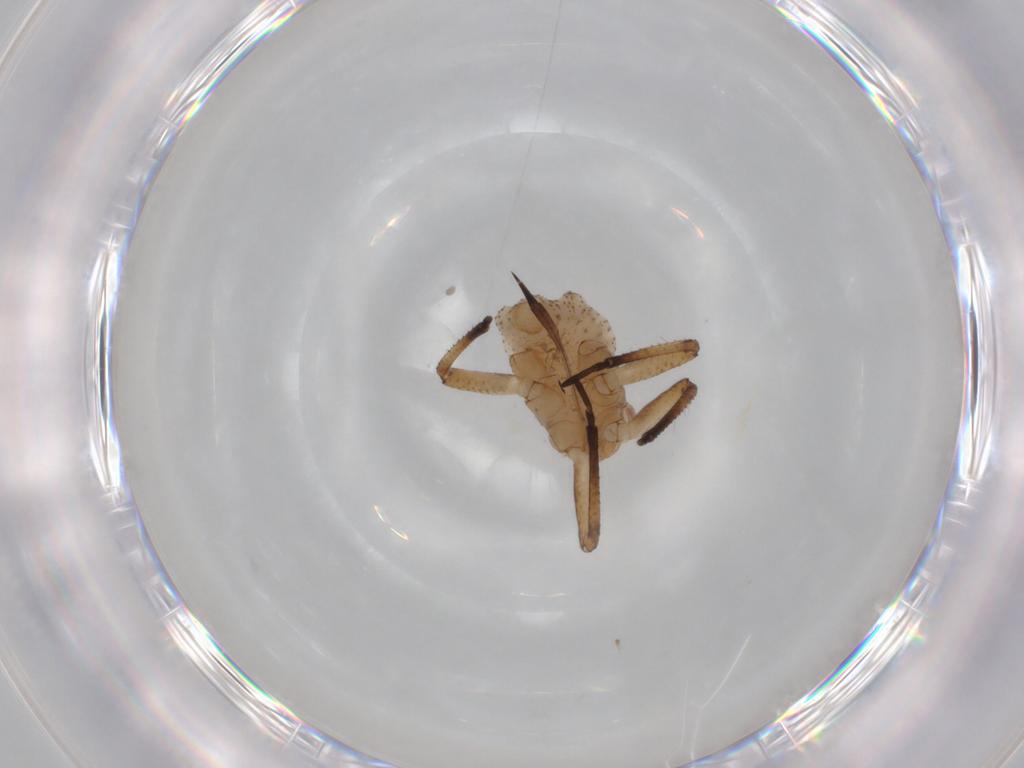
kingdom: Animalia
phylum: Arthropoda
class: Insecta
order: Hemiptera
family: Aphididae
